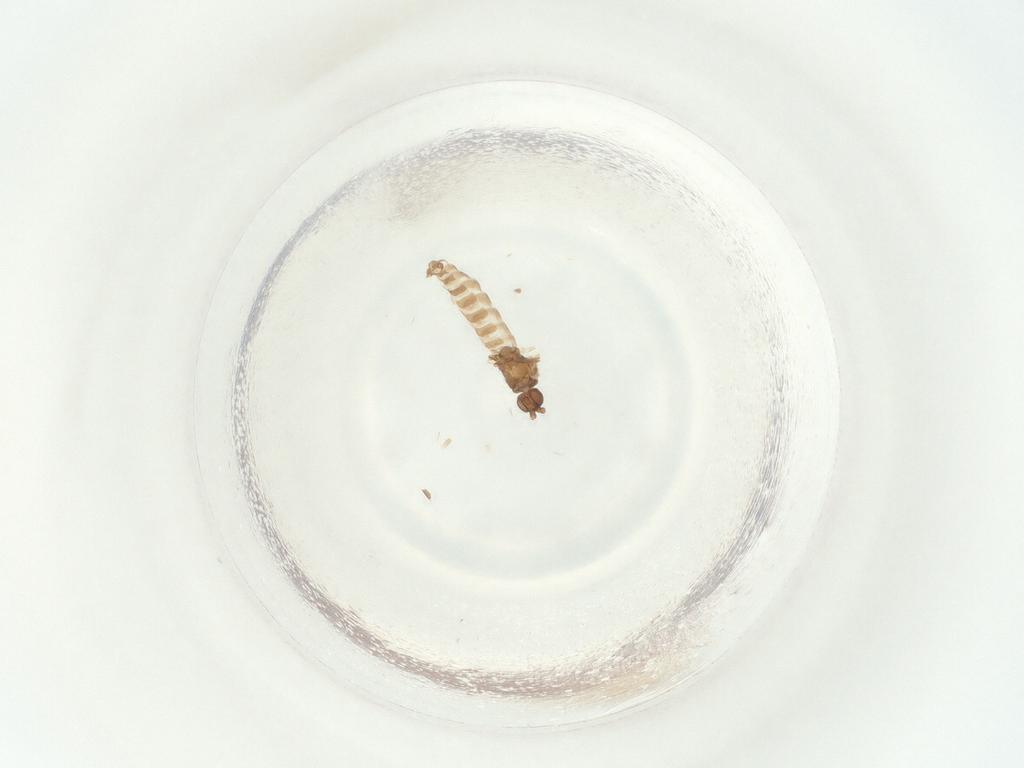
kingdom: Animalia
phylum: Arthropoda
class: Insecta
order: Diptera
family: Sciaridae
